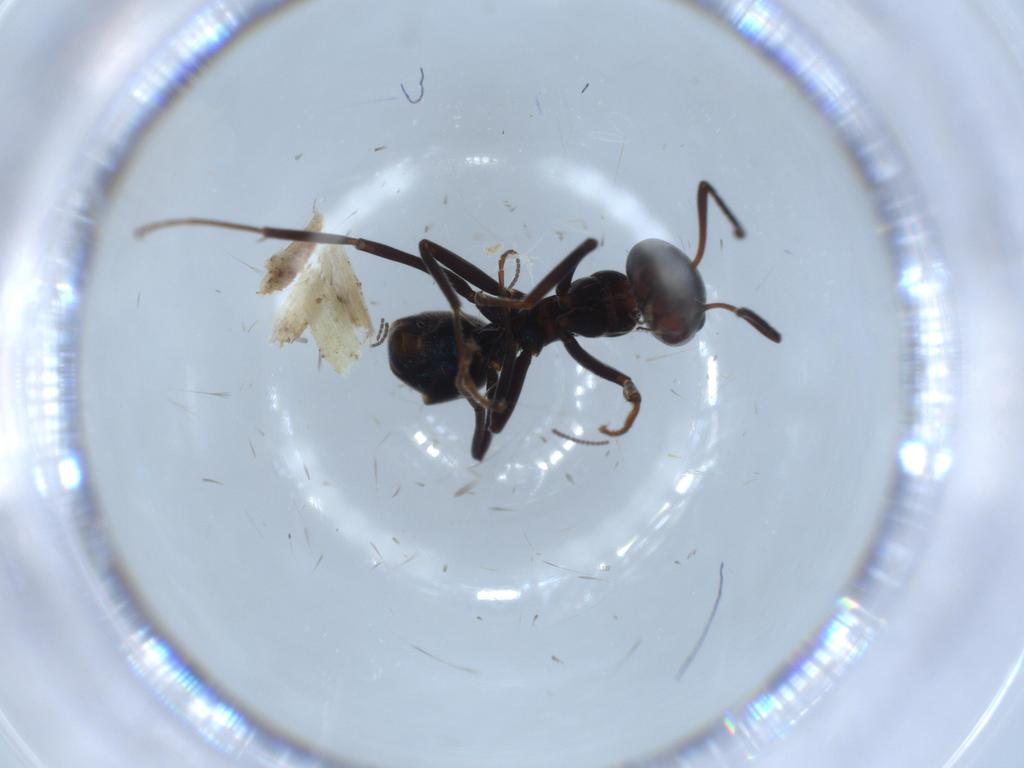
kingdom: Animalia
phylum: Arthropoda
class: Insecta
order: Hymenoptera
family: Formicidae
